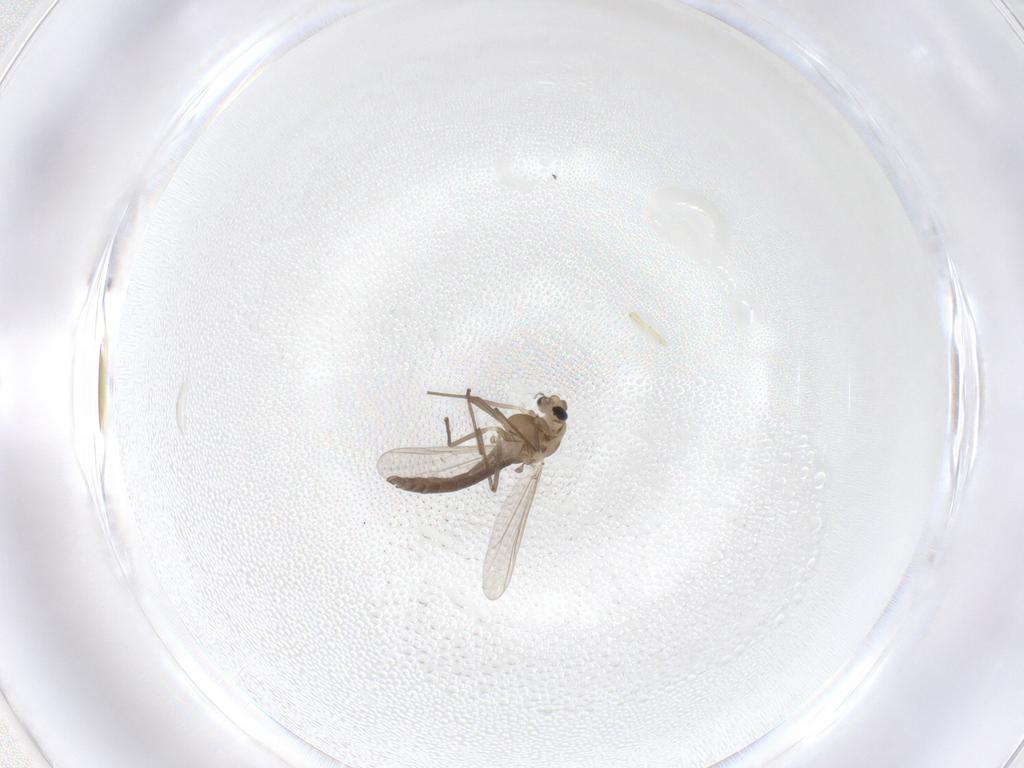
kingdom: Animalia
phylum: Arthropoda
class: Insecta
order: Diptera
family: Chironomidae
